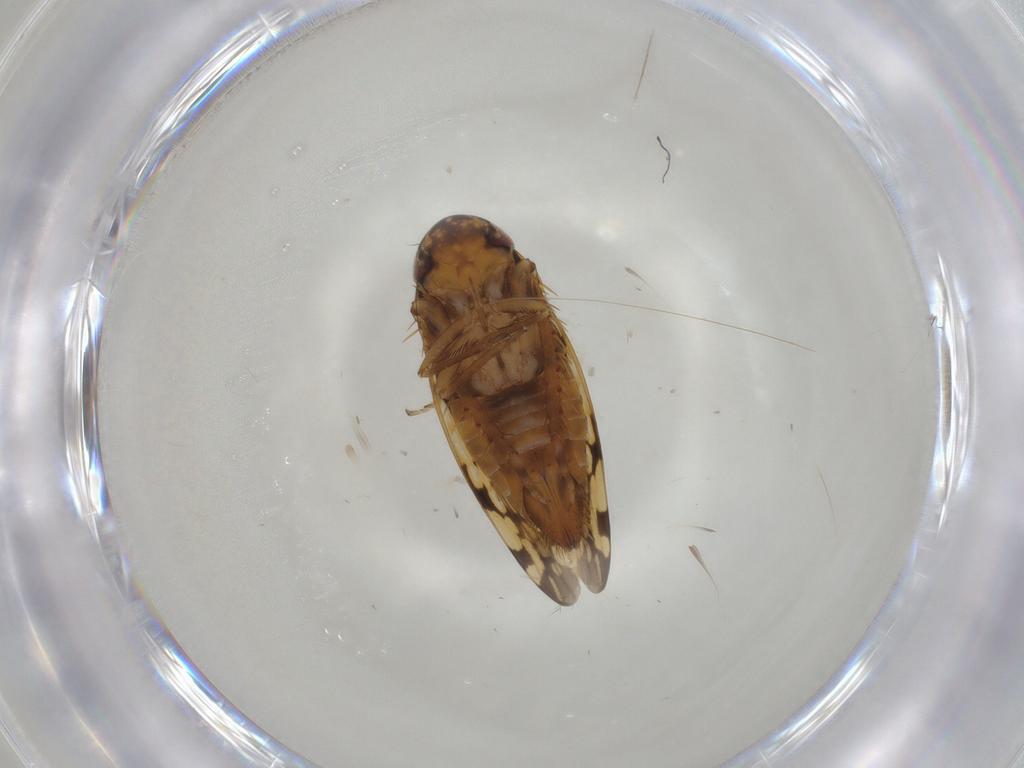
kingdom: Animalia
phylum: Arthropoda
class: Insecta
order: Hemiptera
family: Cicadellidae
